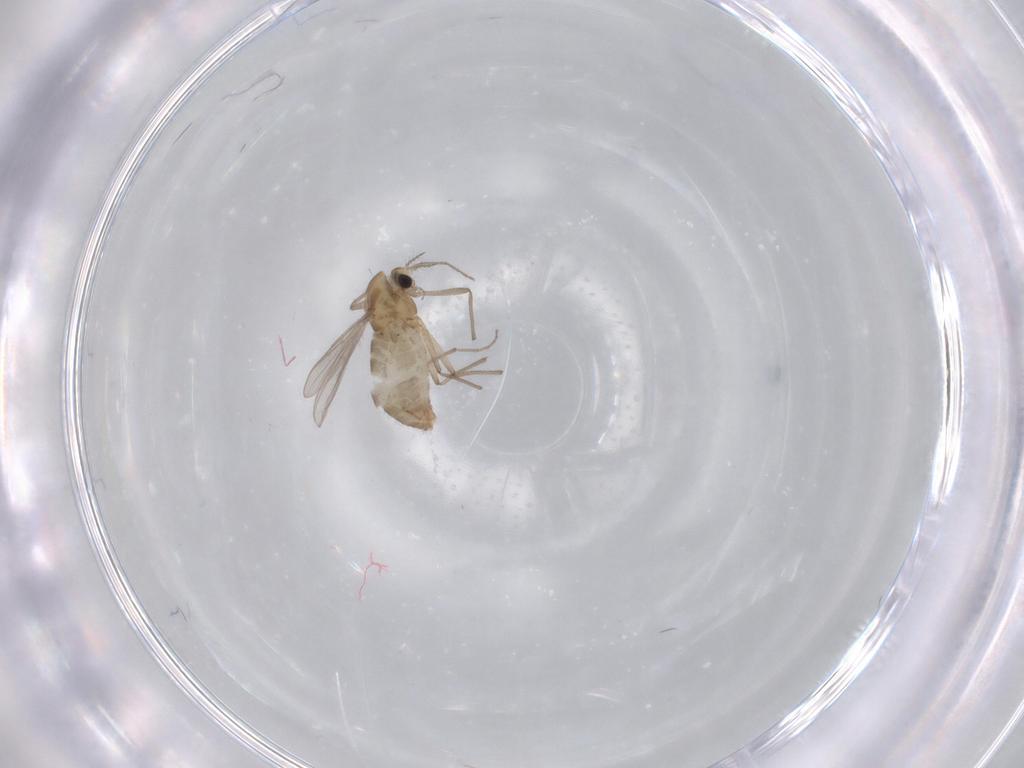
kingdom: Animalia
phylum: Arthropoda
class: Insecta
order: Diptera
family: Chironomidae
